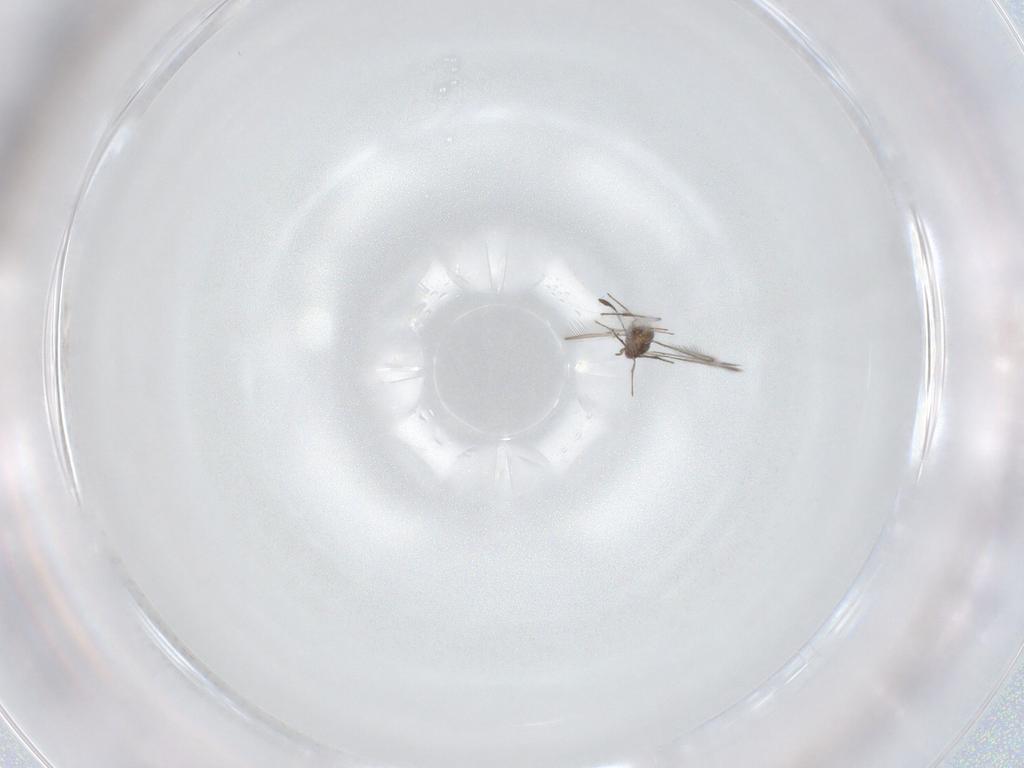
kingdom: Animalia
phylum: Arthropoda
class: Insecta
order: Hymenoptera
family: Mymaridae
